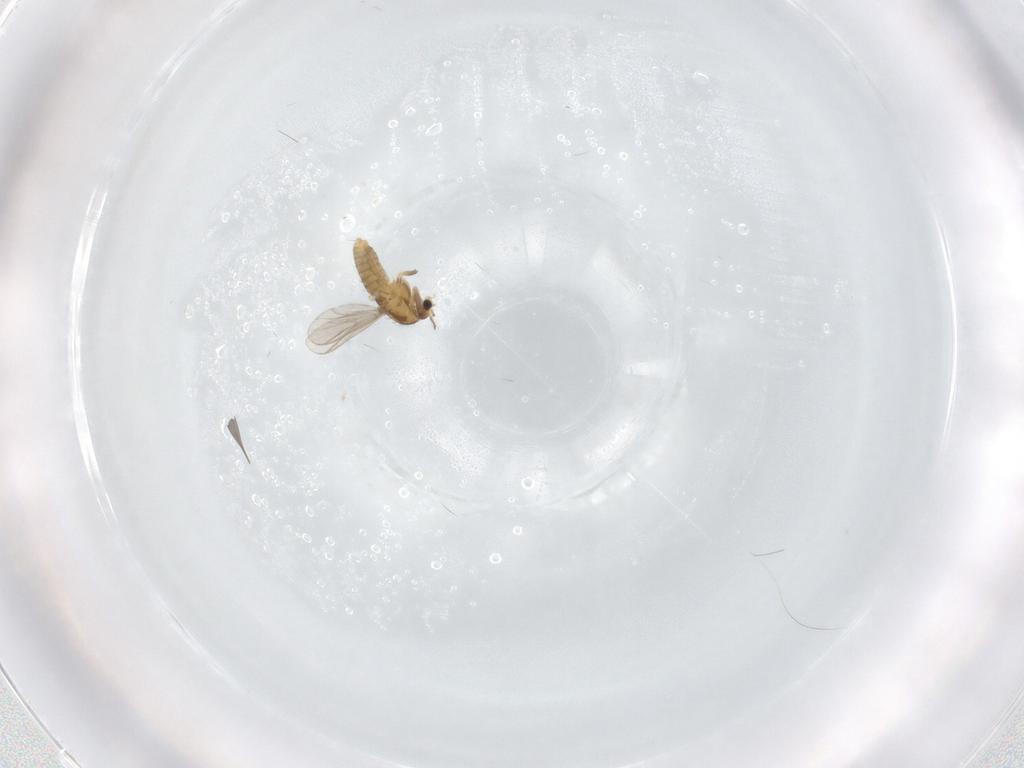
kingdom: Animalia
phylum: Arthropoda
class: Insecta
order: Diptera
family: Chironomidae
